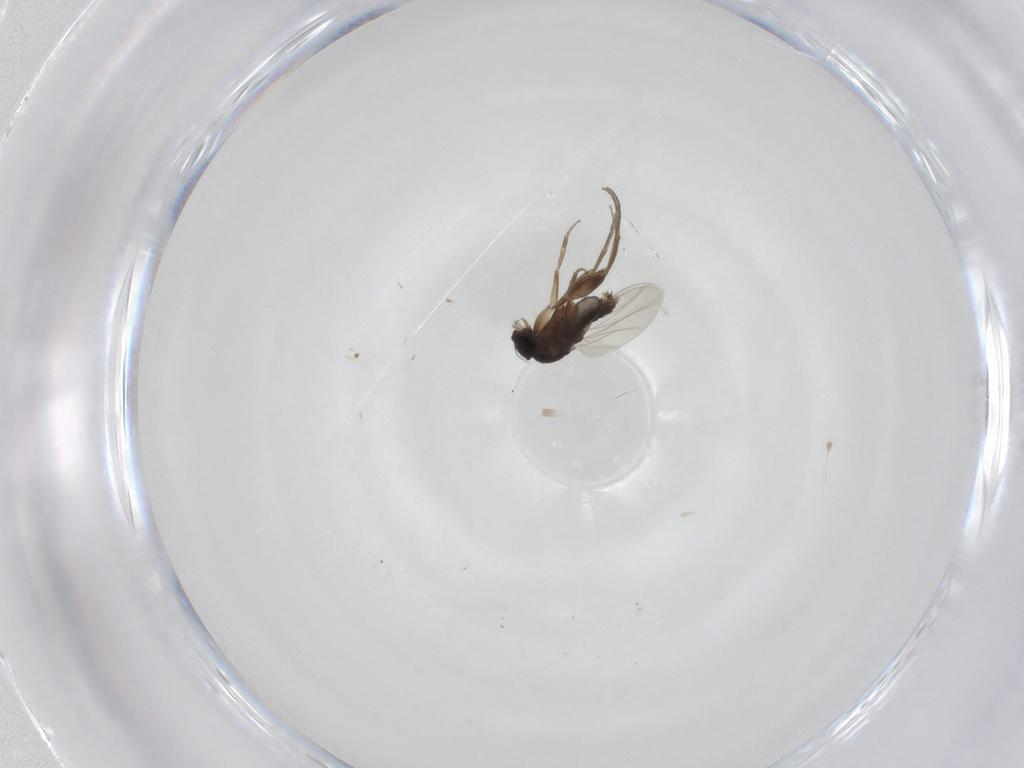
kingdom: Animalia
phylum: Arthropoda
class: Insecta
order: Diptera
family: Phoridae
